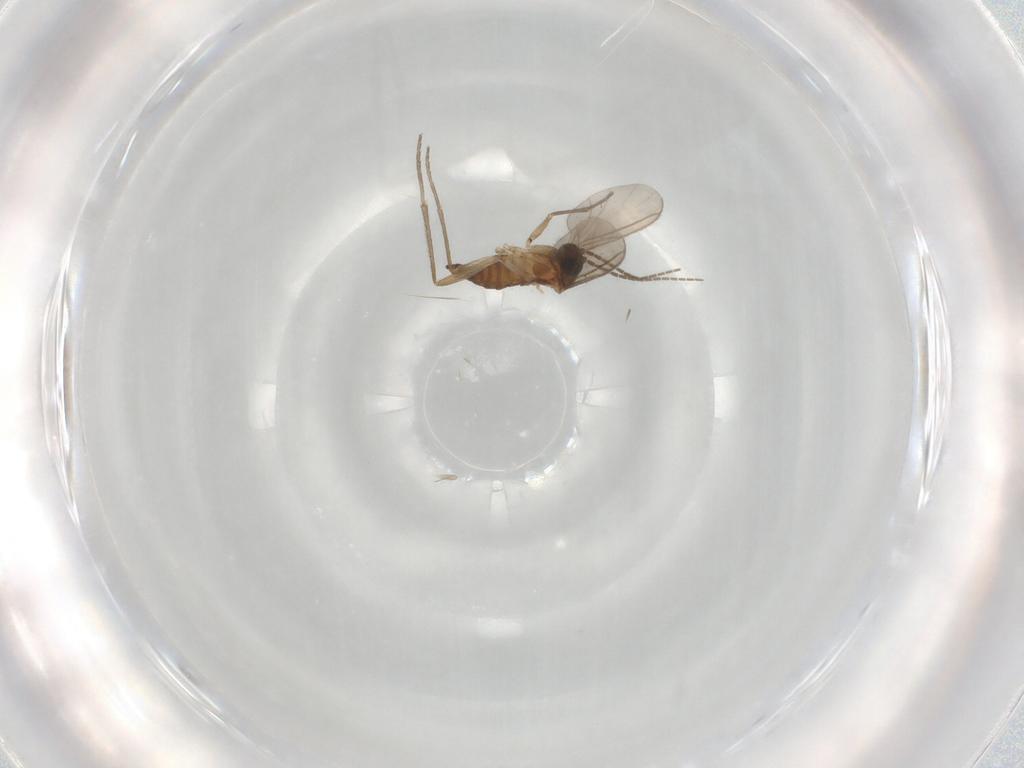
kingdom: Animalia
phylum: Arthropoda
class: Insecta
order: Diptera
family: Sciaridae
